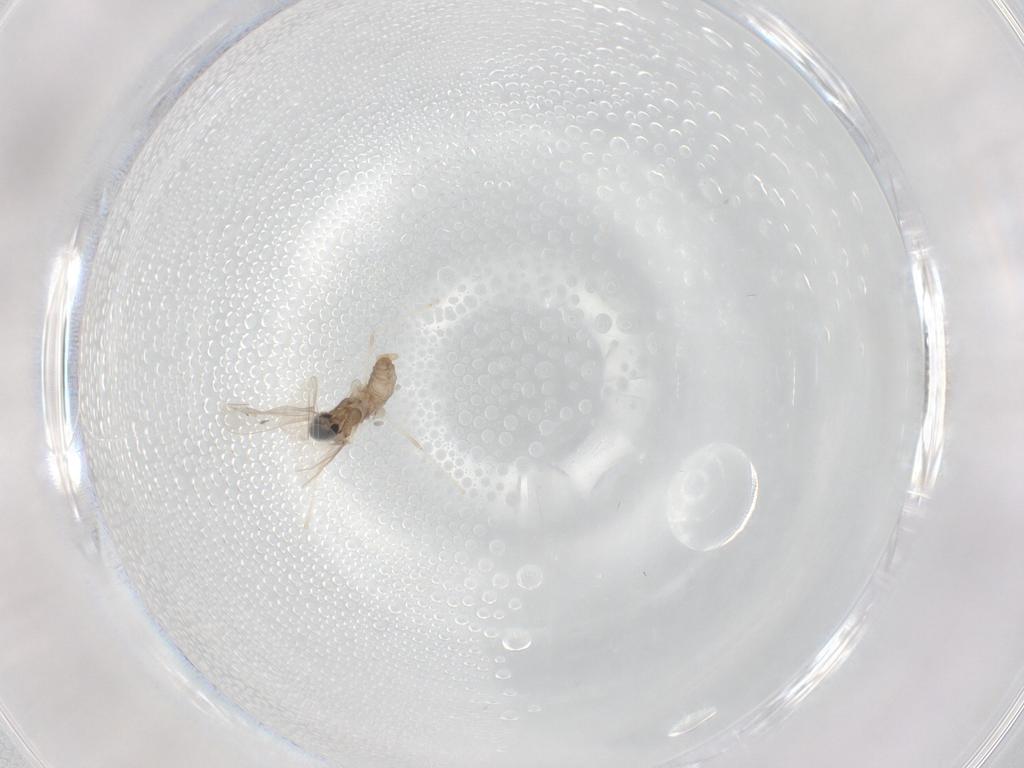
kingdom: Animalia
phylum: Arthropoda
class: Insecta
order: Diptera
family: Cecidomyiidae
